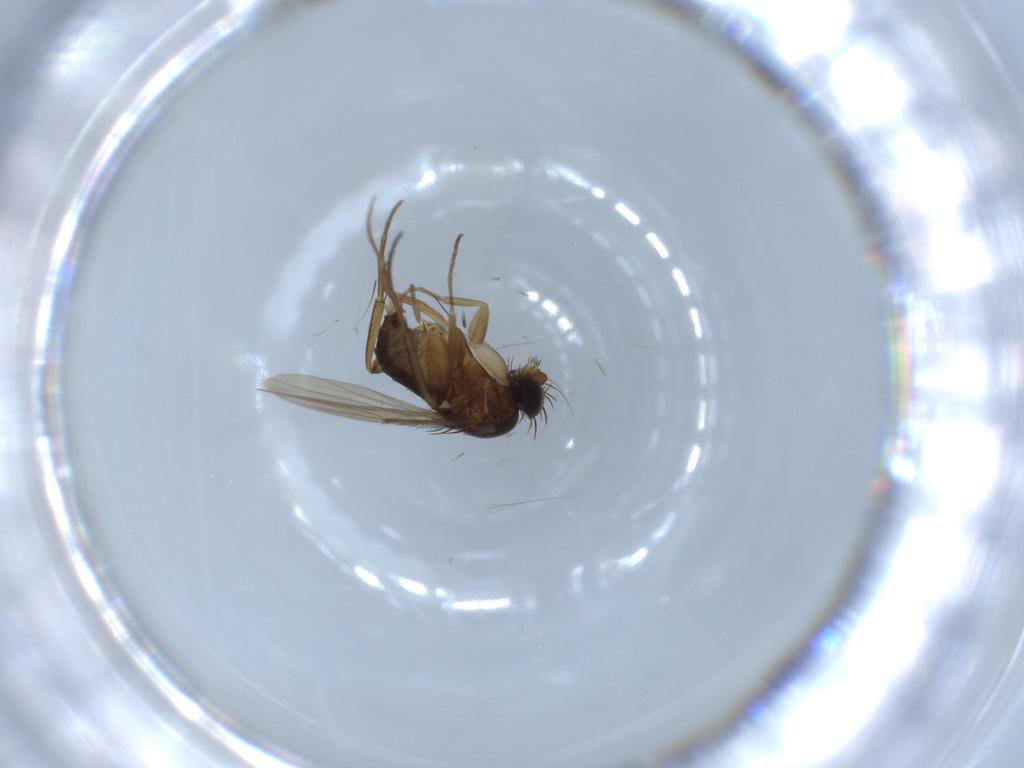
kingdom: Animalia
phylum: Arthropoda
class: Insecta
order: Diptera
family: Phoridae
